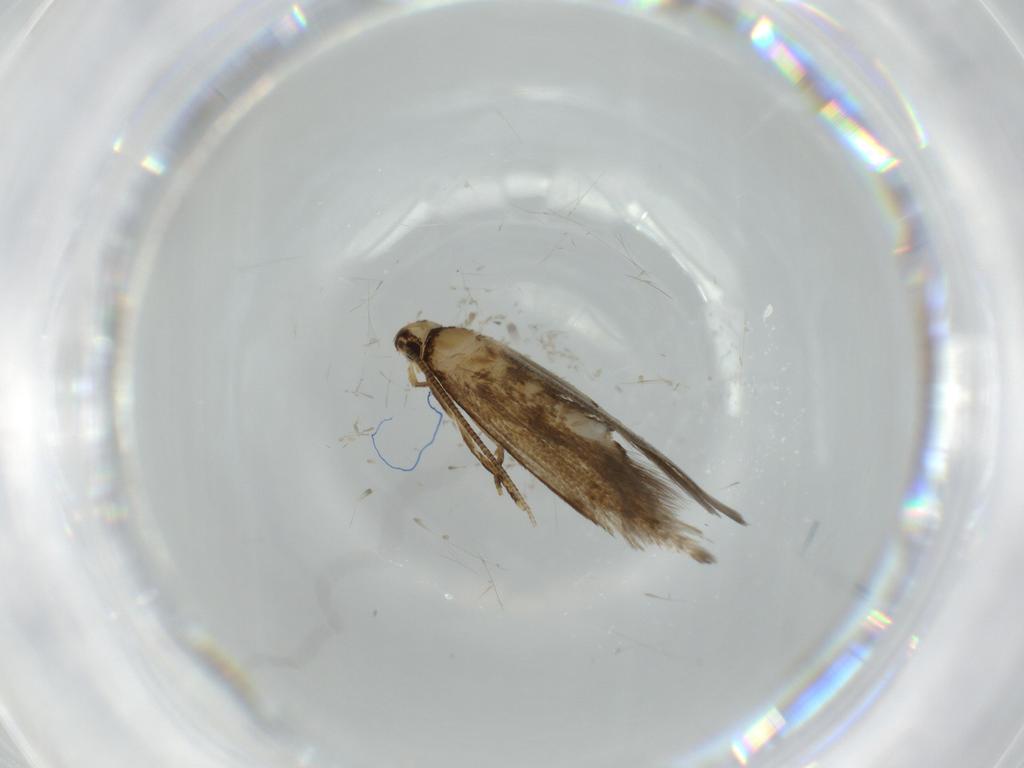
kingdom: Animalia
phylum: Arthropoda
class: Insecta
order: Lepidoptera
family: Tineidae
